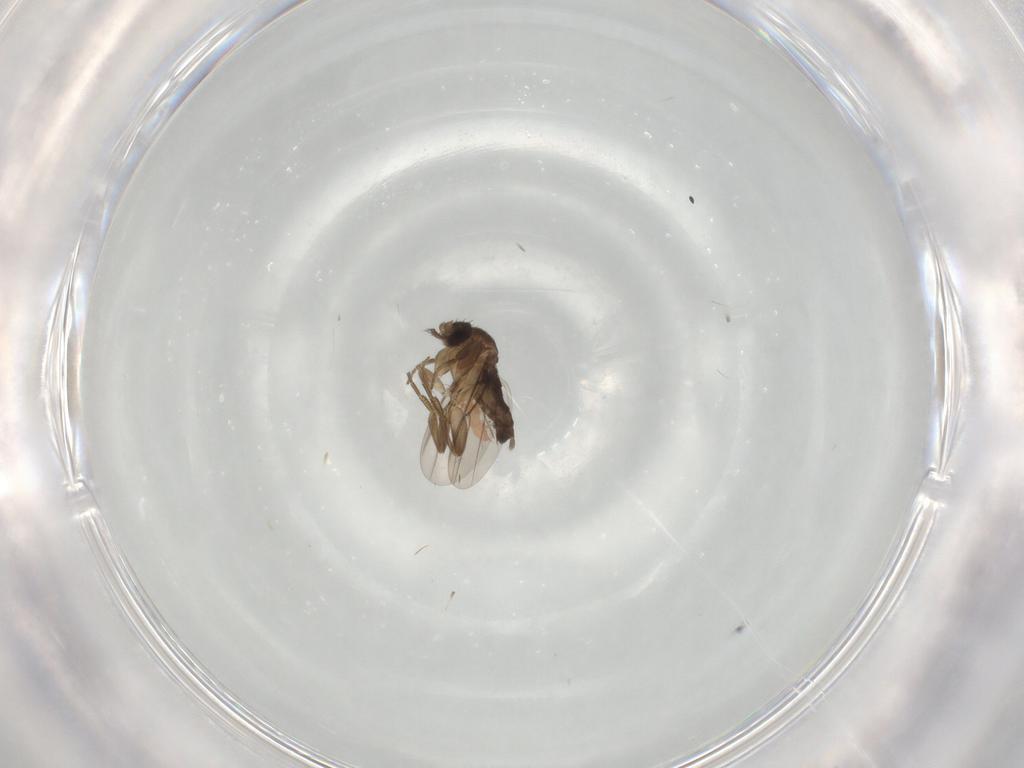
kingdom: Animalia
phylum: Arthropoda
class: Insecta
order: Diptera
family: Phoridae
